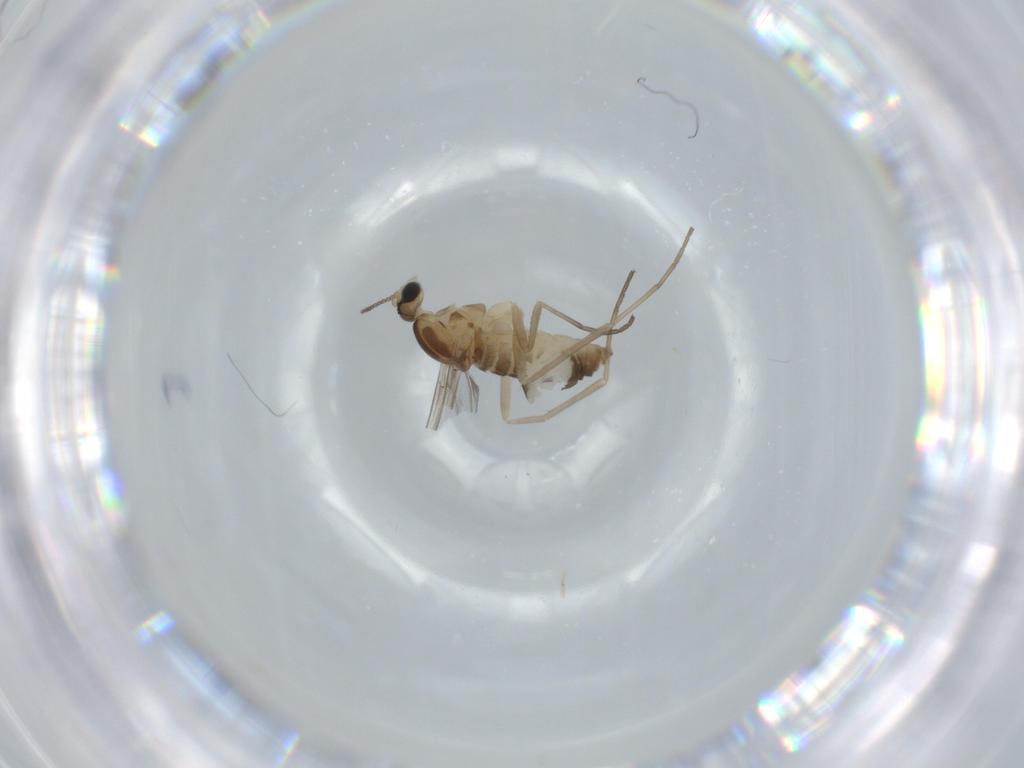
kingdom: Animalia
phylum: Arthropoda
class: Insecta
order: Diptera
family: Cecidomyiidae
